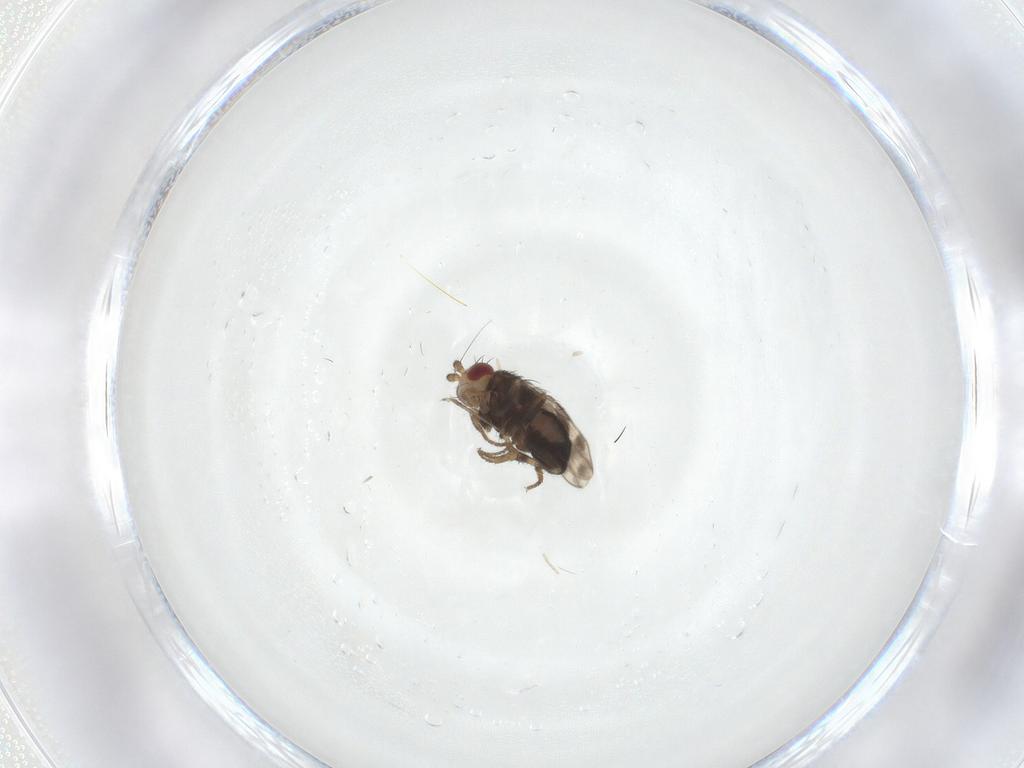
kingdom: Animalia
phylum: Arthropoda
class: Insecta
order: Diptera
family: Sphaeroceridae
